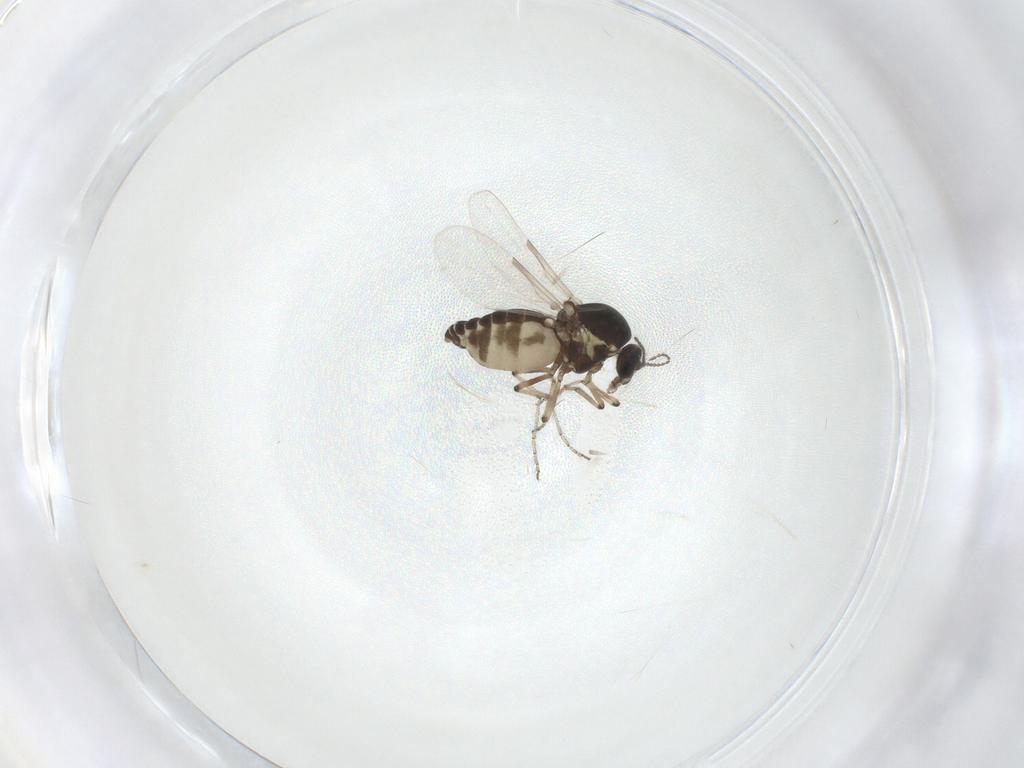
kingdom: Animalia
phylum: Arthropoda
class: Insecta
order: Diptera
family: Ceratopogonidae
